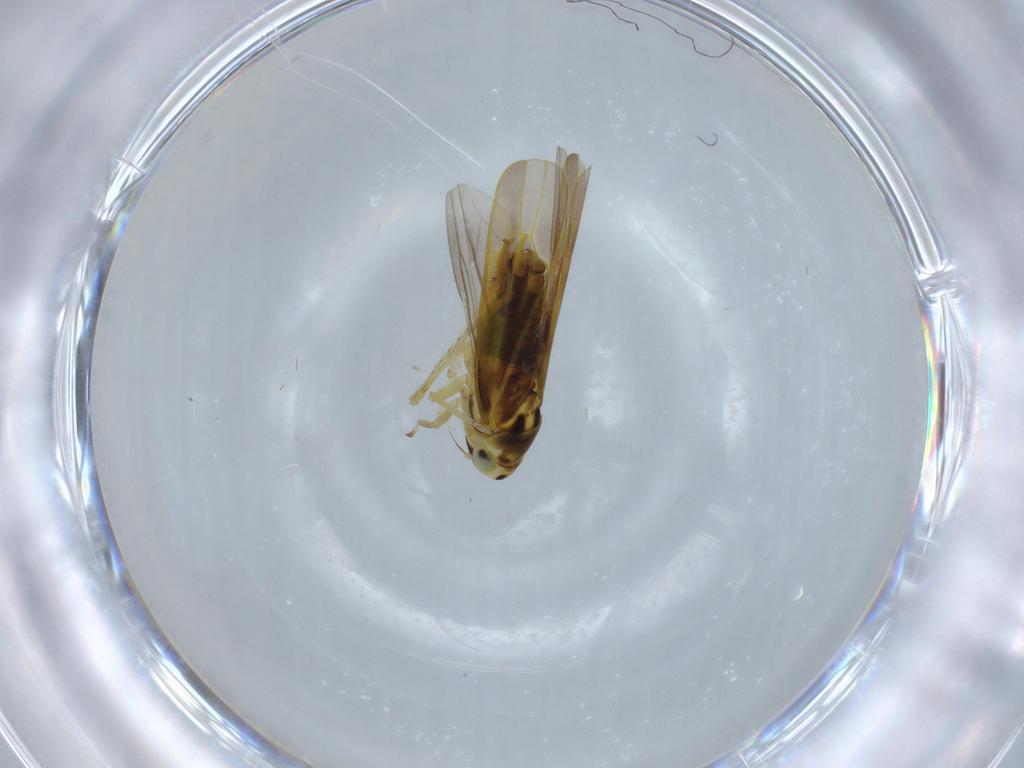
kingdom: Animalia
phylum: Arthropoda
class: Insecta
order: Hemiptera
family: Cicadellidae
